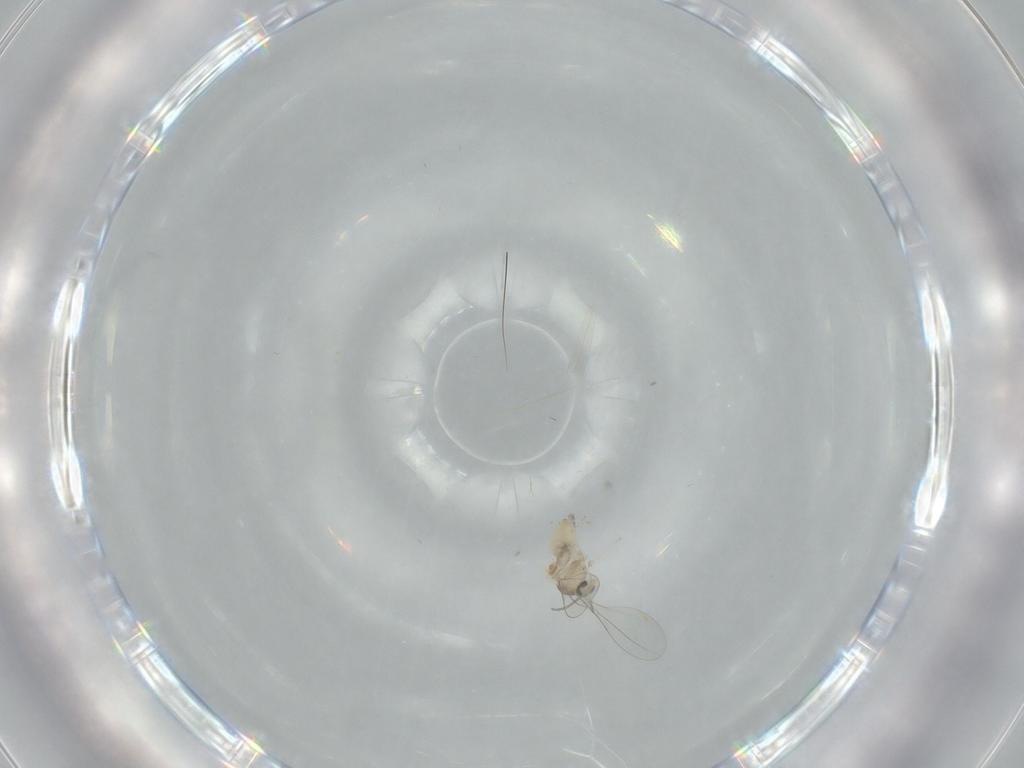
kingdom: Animalia
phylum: Arthropoda
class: Insecta
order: Diptera
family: Cecidomyiidae
